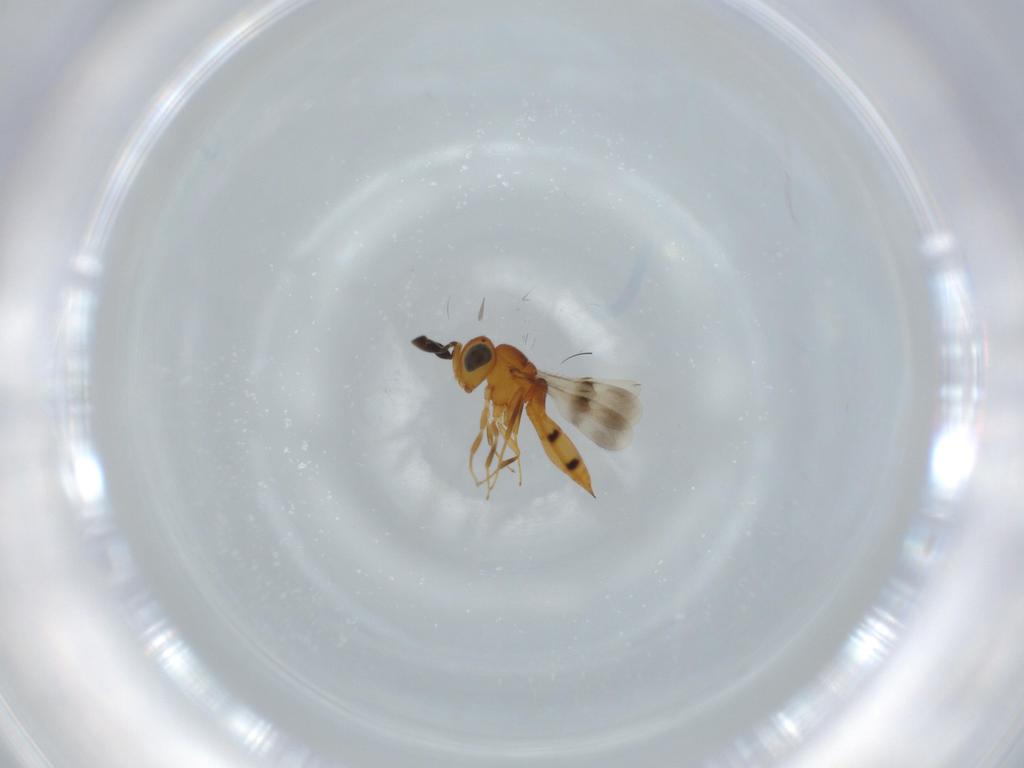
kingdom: Animalia
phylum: Arthropoda
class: Insecta
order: Hymenoptera
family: Scelionidae
